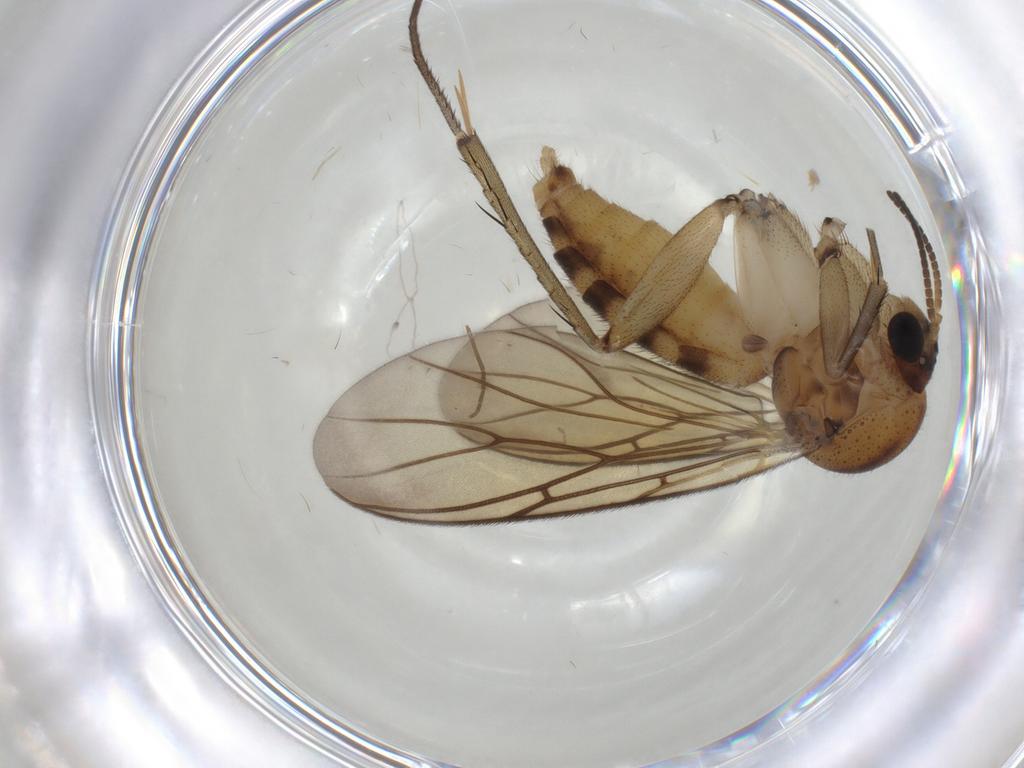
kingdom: Animalia
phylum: Arthropoda
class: Insecta
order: Diptera
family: Mycetophilidae
